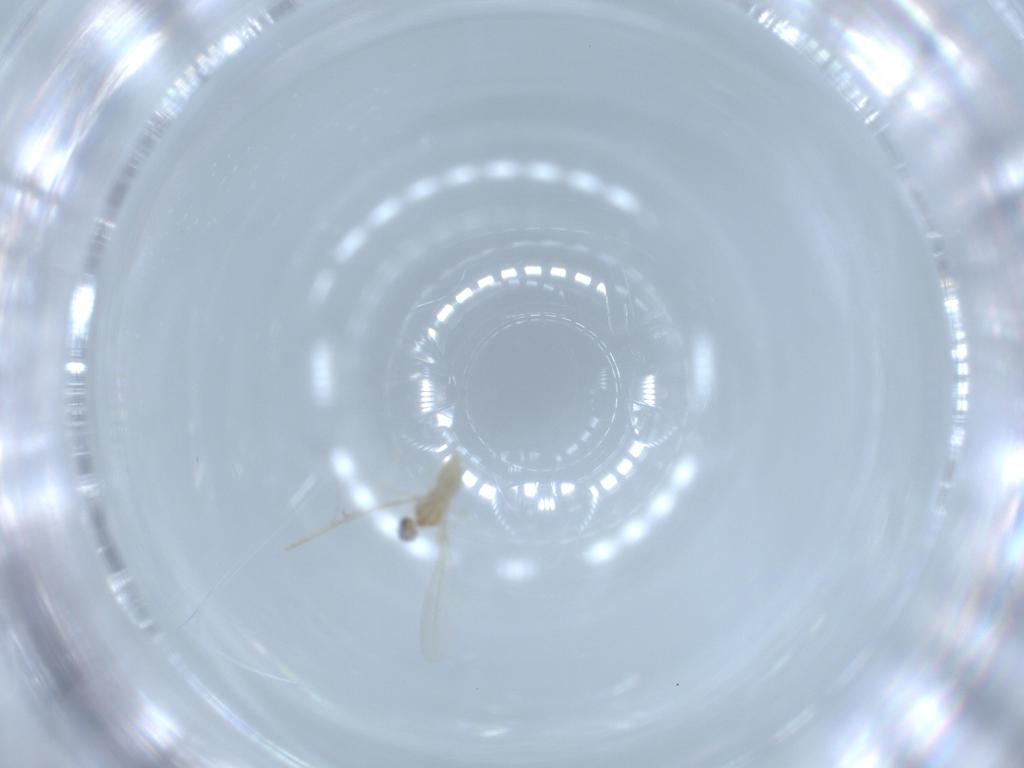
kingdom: Animalia
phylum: Arthropoda
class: Insecta
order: Diptera
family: Cecidomyiidae
